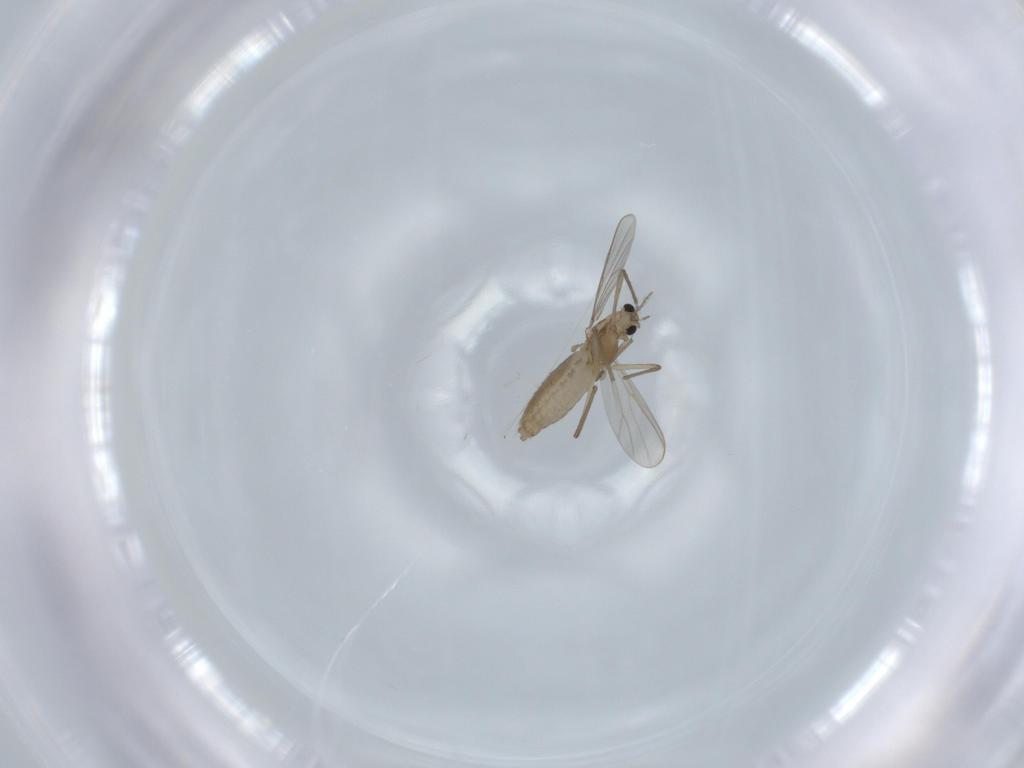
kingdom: Animalia
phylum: Arthropoda
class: Insecta
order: Diptera
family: Chironomidae
